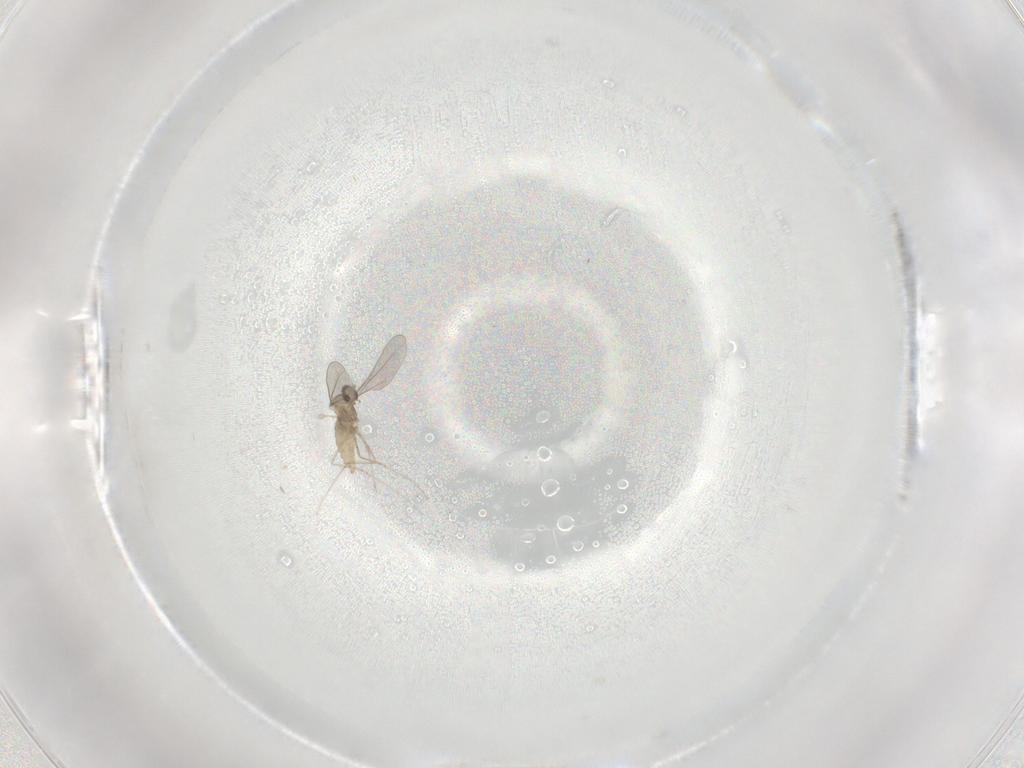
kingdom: Animalia
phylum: Arthropoda
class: Insecta
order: Diptera
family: Cecidomyiidae
